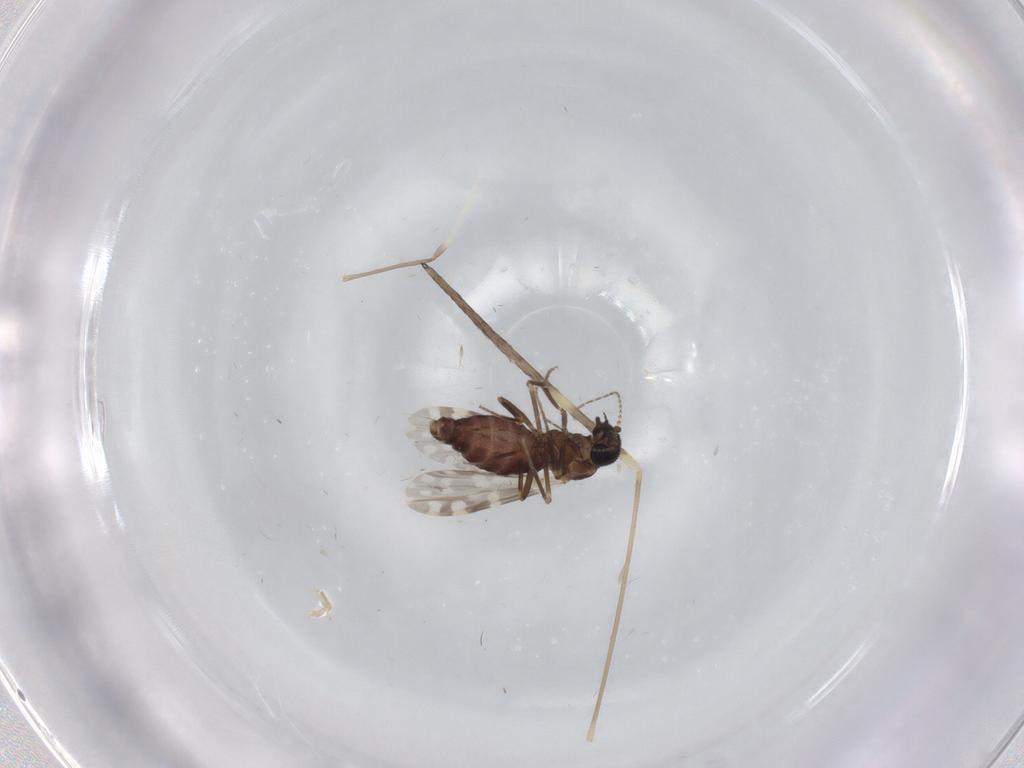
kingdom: Animalia
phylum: Arthropoda
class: Insecta
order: Diptera
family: Ceratopogonidae
